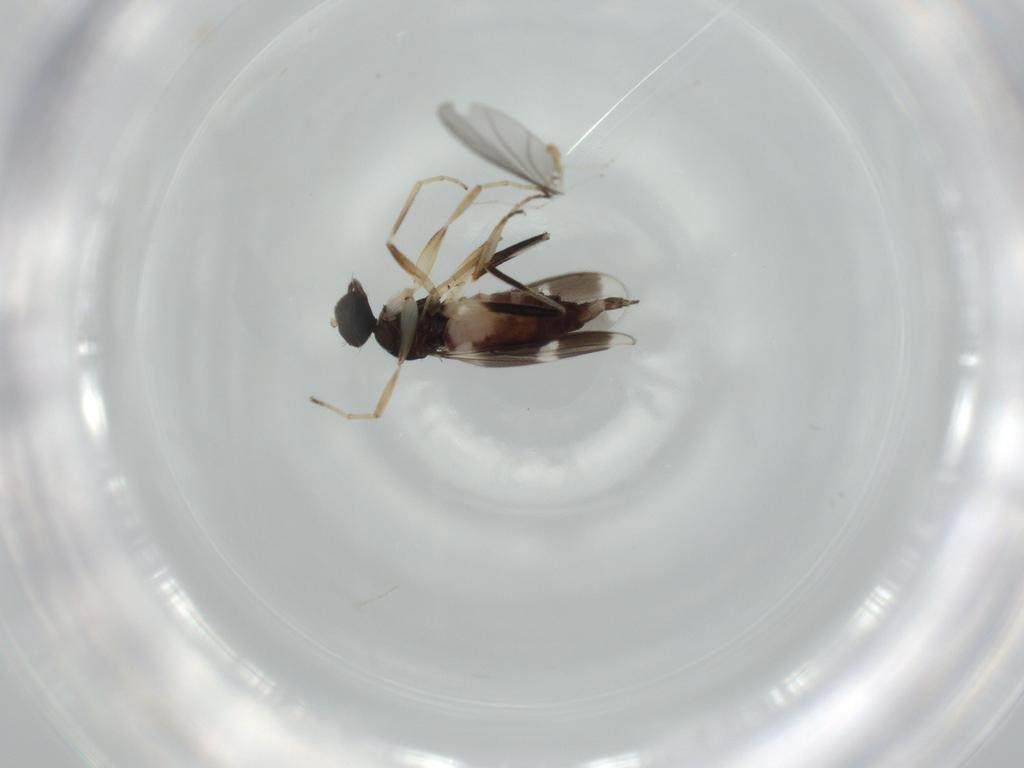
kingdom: Animalia
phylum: Arthropoda
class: Insecta
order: Diptera
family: Hybotidae
